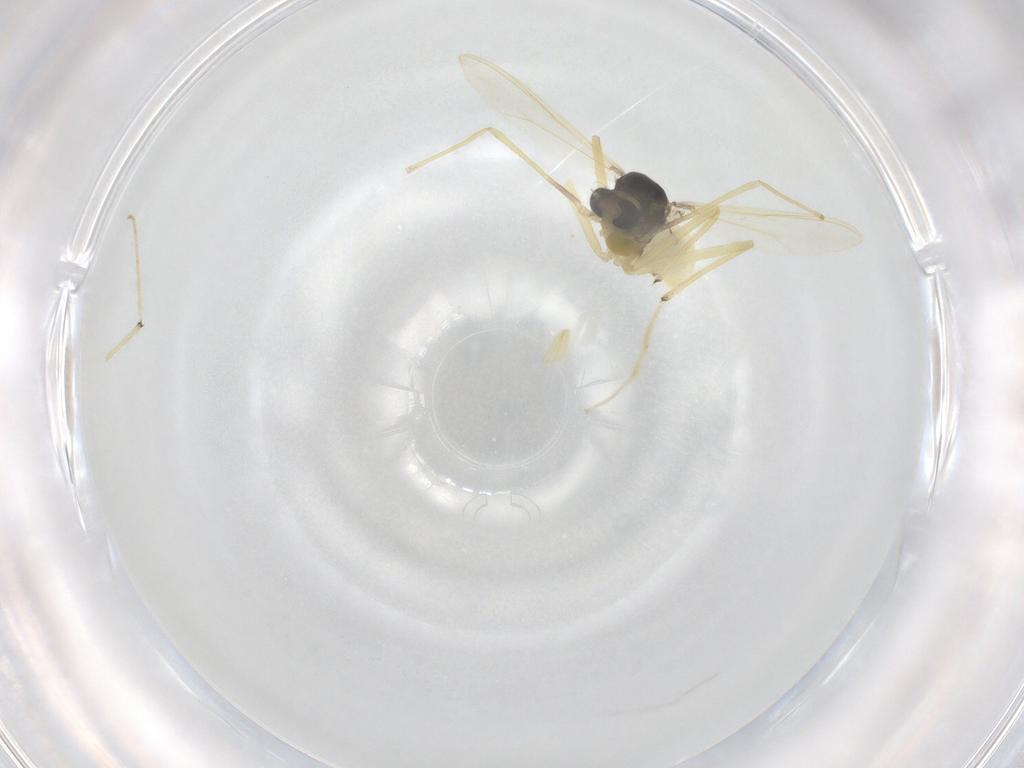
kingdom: Animalia
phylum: Arthropoda
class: Insecta
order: Diptera
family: Chironomidae
